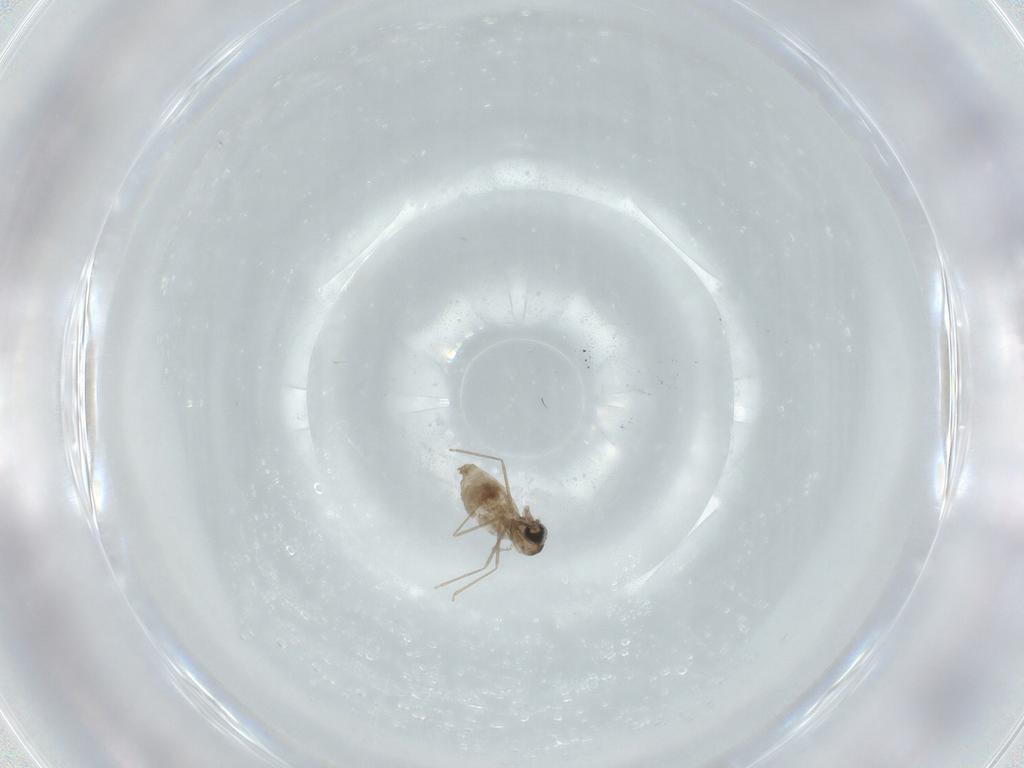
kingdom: Animalia
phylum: Arthropoda
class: Insecta
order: Diptera
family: Cecidomyiidae
